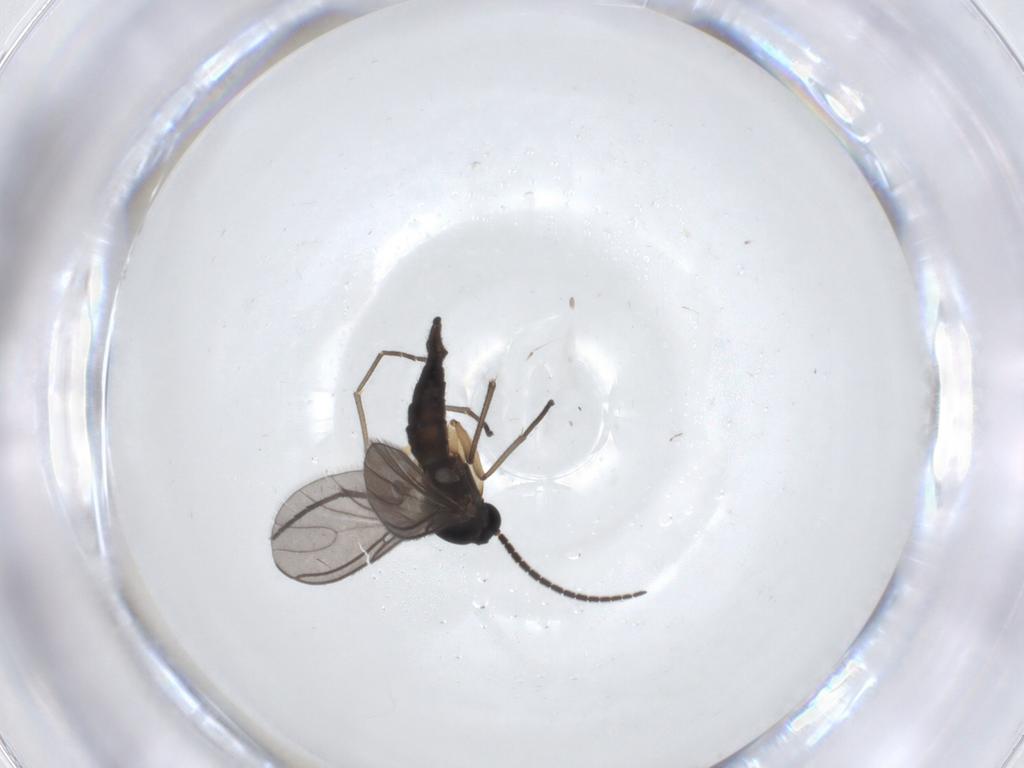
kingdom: Animalia
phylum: Arthropoda
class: Insecta
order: Diptera
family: Sciaridae
